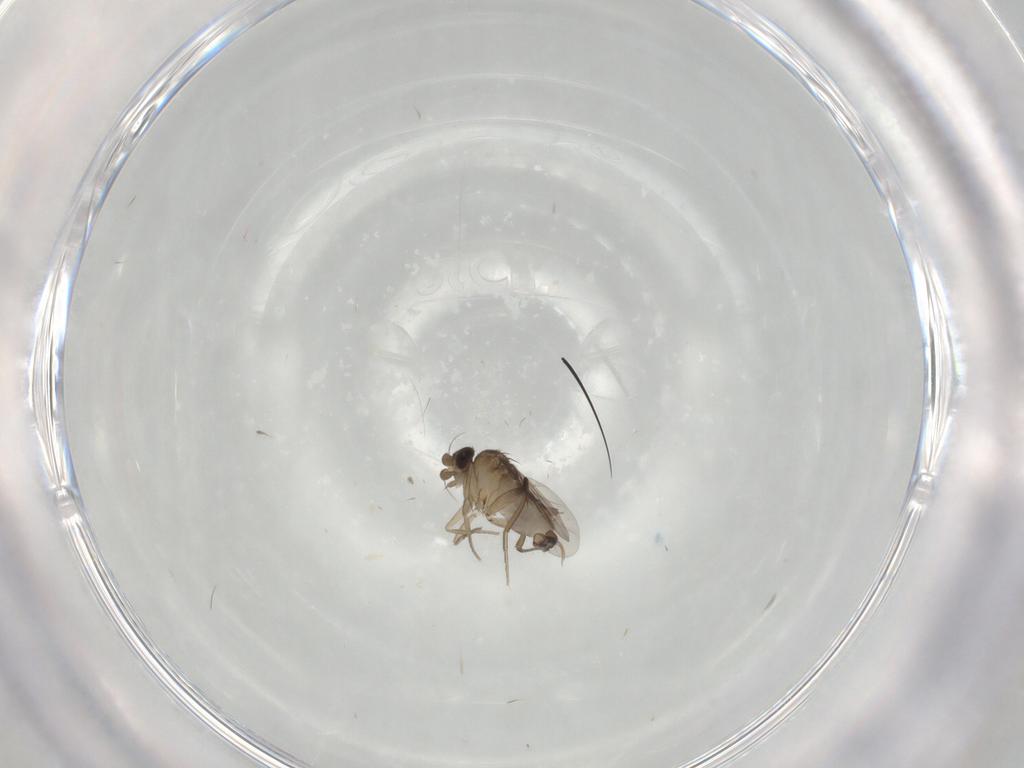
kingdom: Animalia
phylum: Arthropoda
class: Insecta
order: Diptera
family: Phoridae
